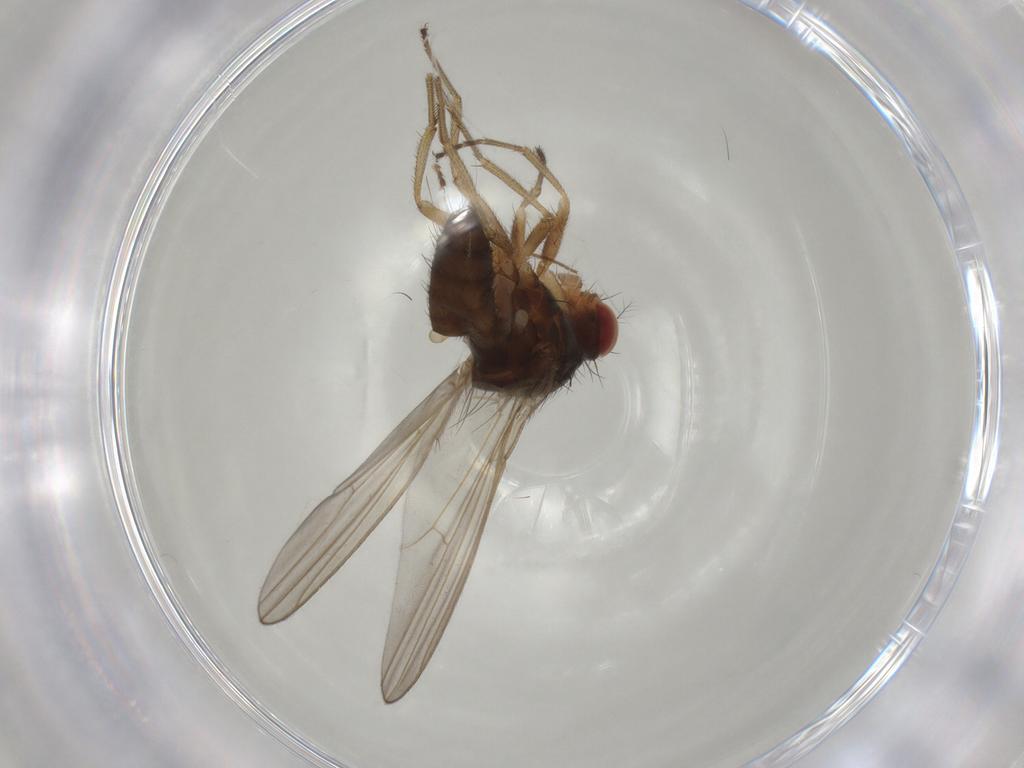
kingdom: Animalia
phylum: Arthropoda
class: Insecta
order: Diptera
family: Drosophilidae
